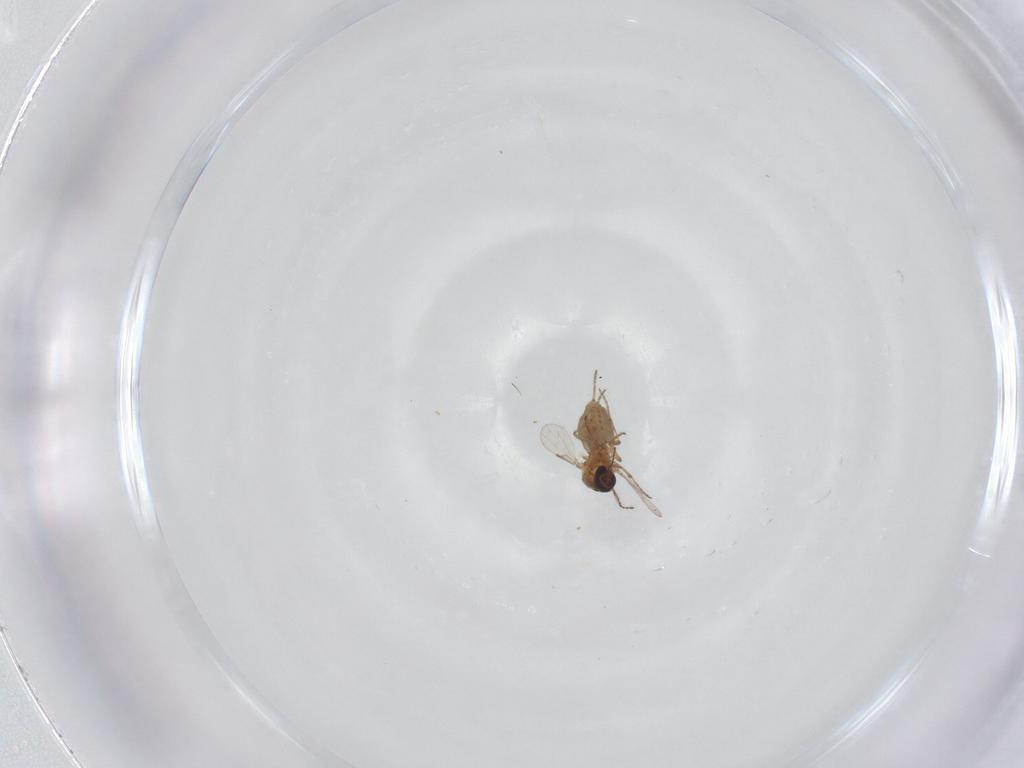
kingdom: Animalia
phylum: Arthropoda
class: Insecta
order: Diptera
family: Ceratopogonidae
